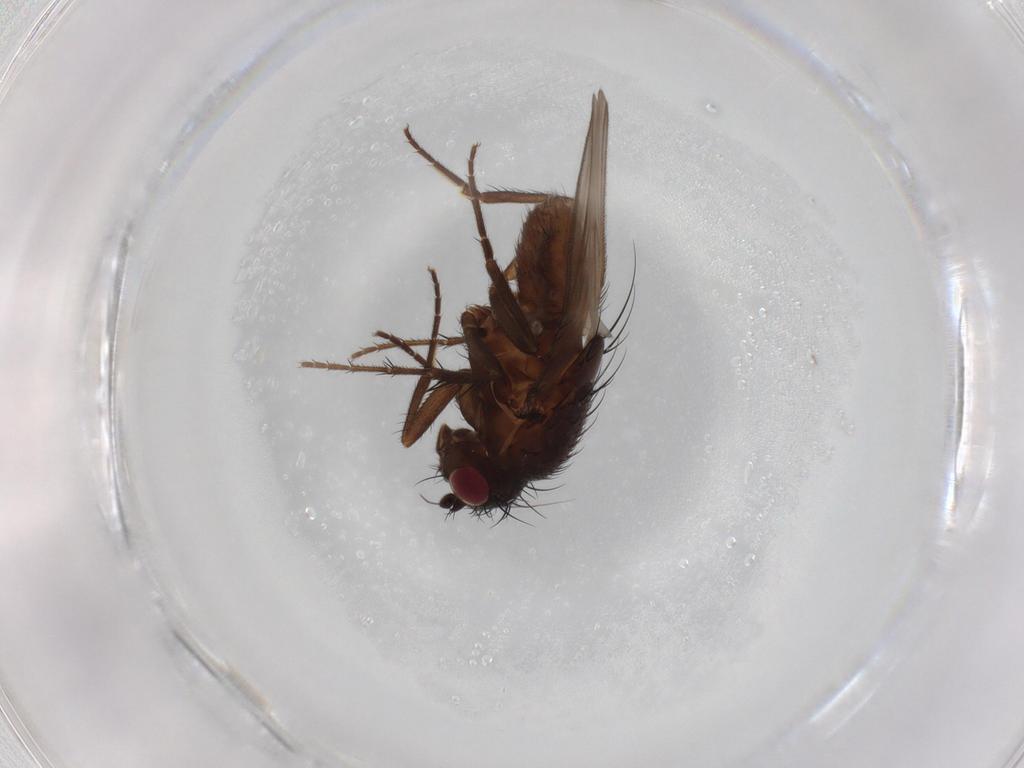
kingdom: Animalia
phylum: Arthropoda
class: Insecta
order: Diptera
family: Sphaeroceridae
